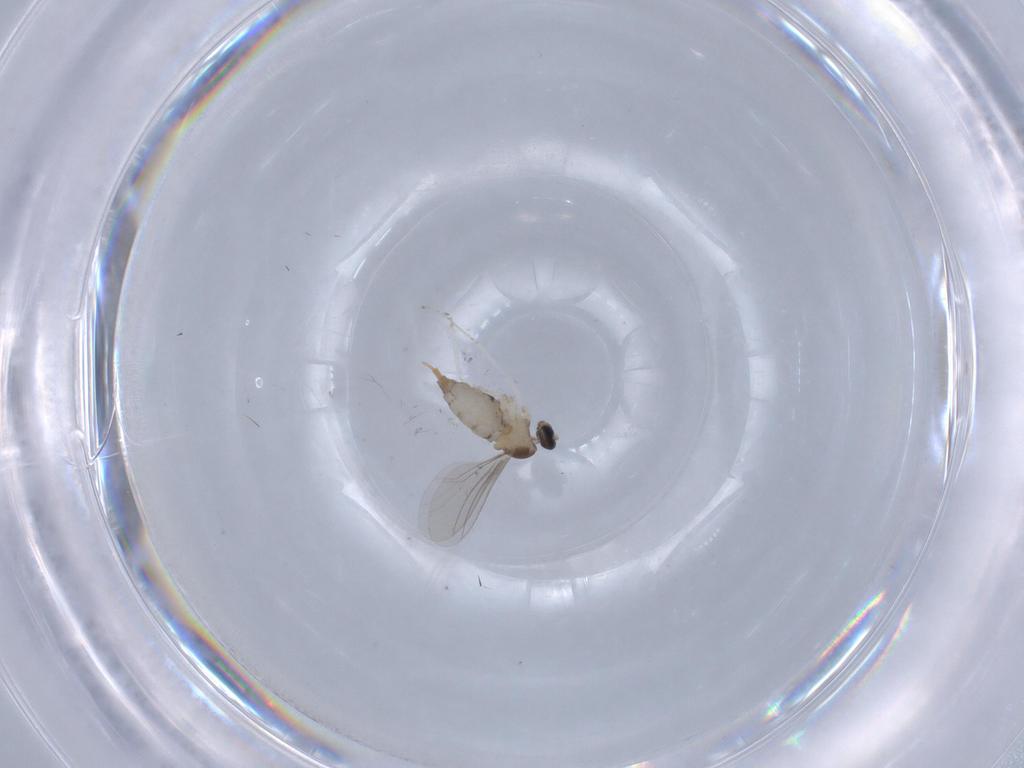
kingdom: Animalia
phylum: Arthropoda
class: Insecta
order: Diptera
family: Cecidomyiidae
